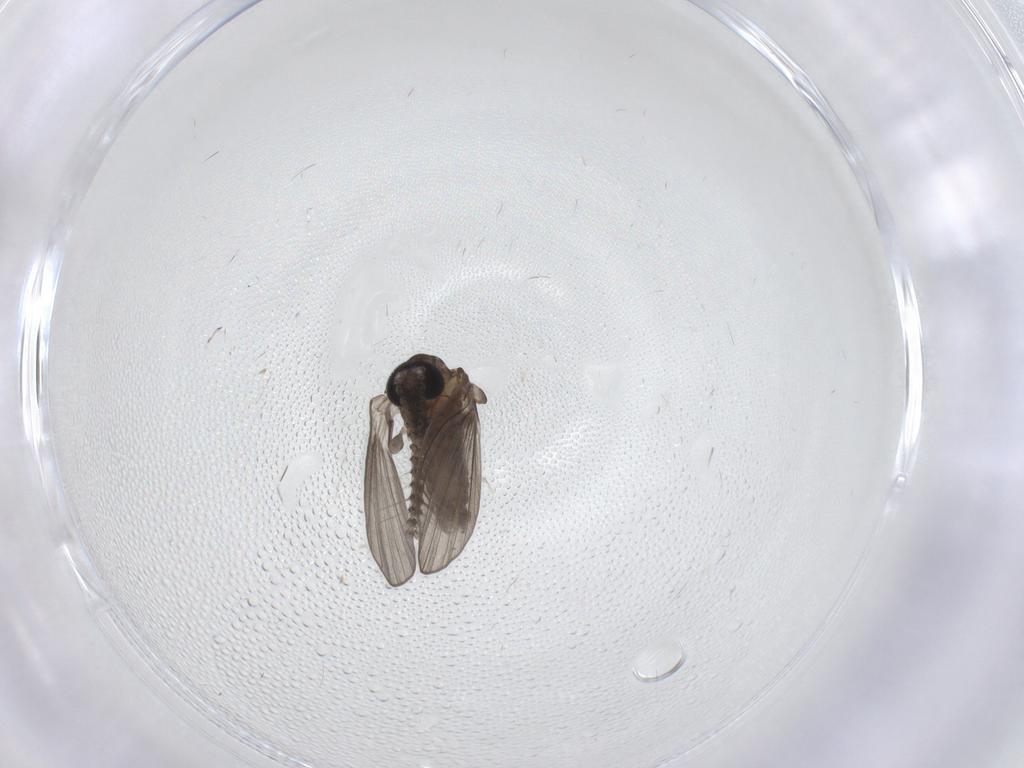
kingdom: Animalia
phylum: Arthropoda
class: Insecta
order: Diptera
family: Psychodidae
